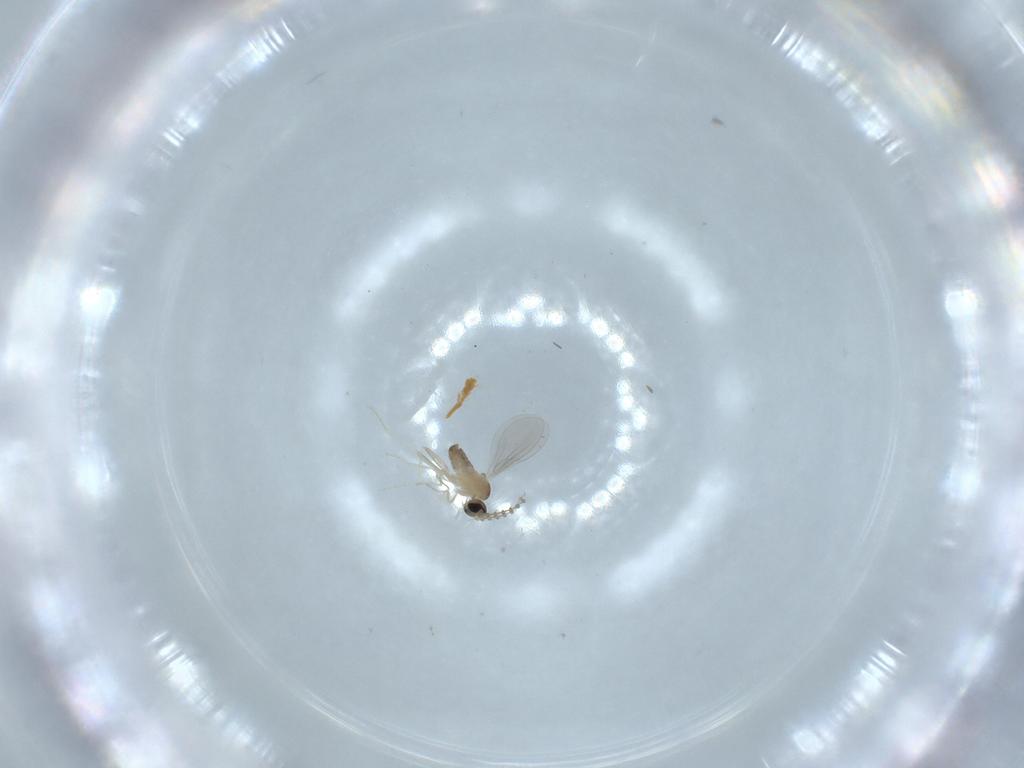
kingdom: Animalia
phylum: Arthropoda
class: Insecta
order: Diptera
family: Cecidomyiidae
